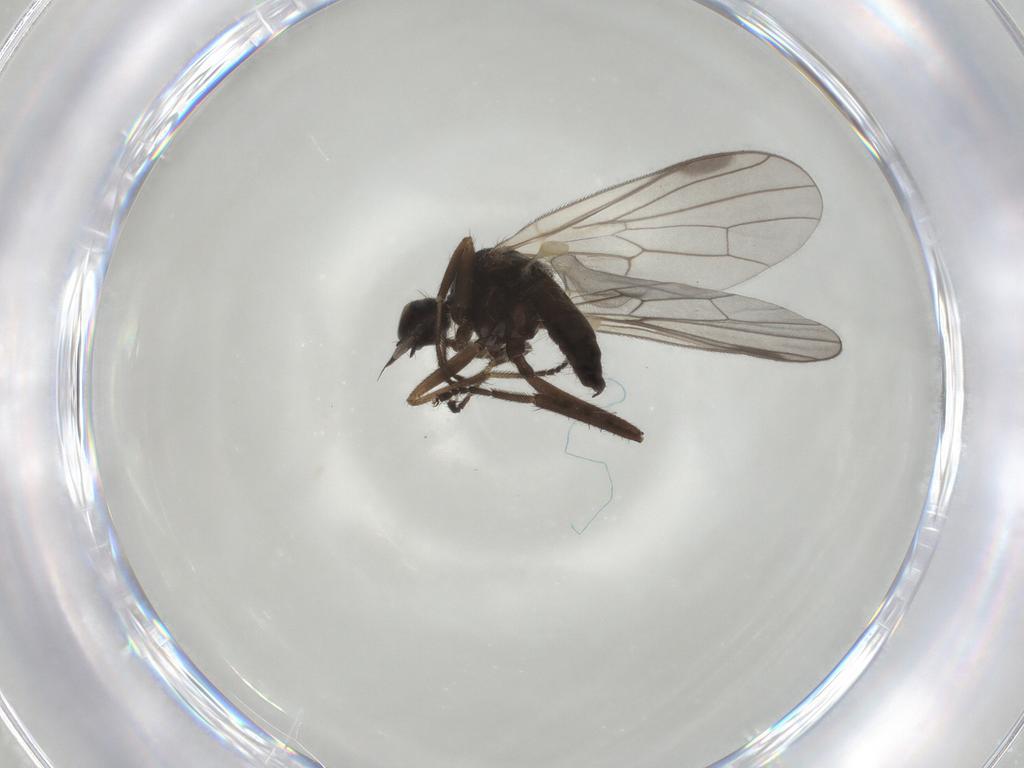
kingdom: Animalia
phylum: Arthropoda
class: Insecta
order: Diptera
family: Hybotidae
